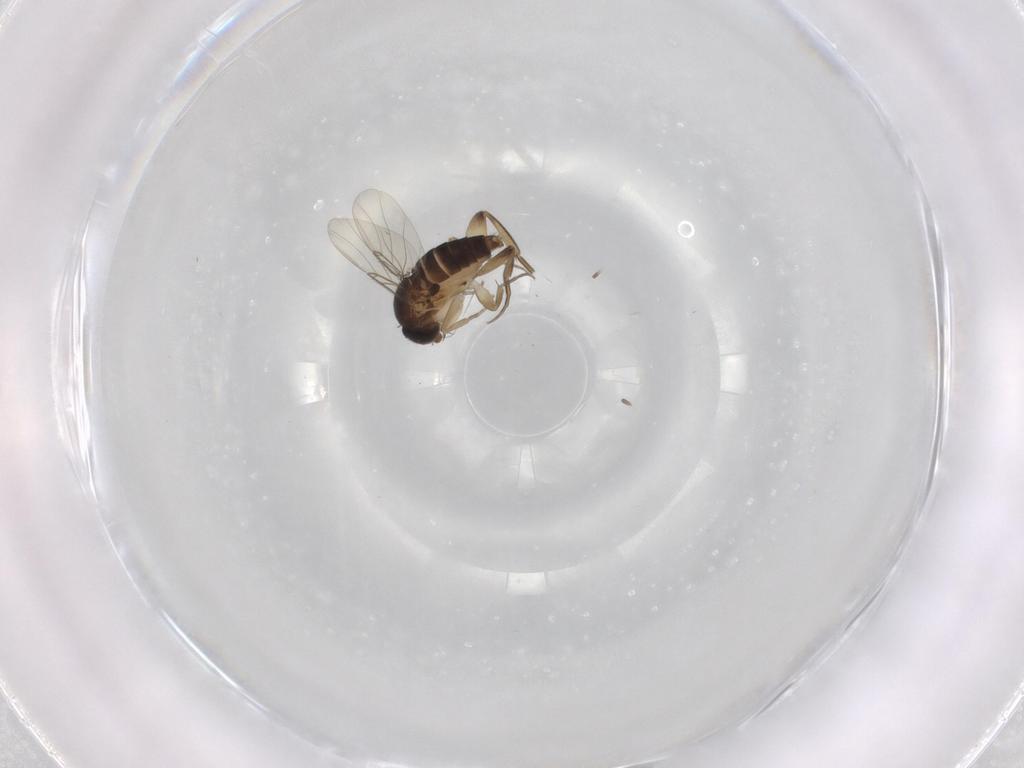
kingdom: Animalia
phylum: Arthropoda
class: Insecta
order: Diptera
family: Phoridae
